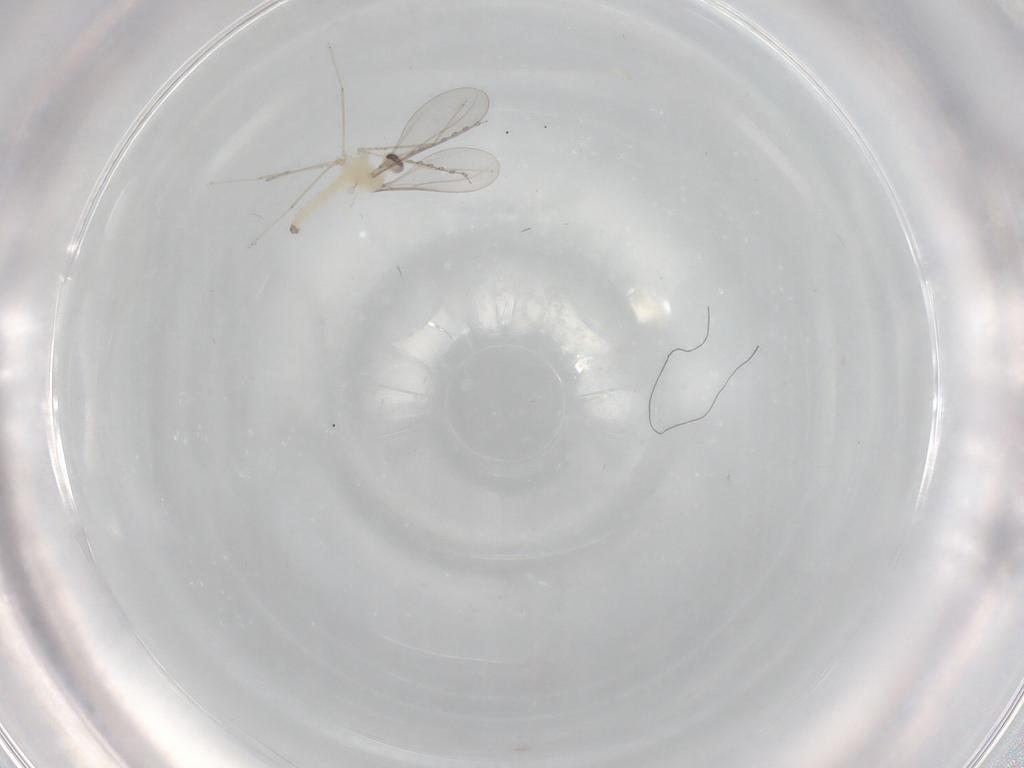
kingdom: Animalia
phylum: Arthropoda
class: Insecta
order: Diptera
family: Cecidomyiidae
